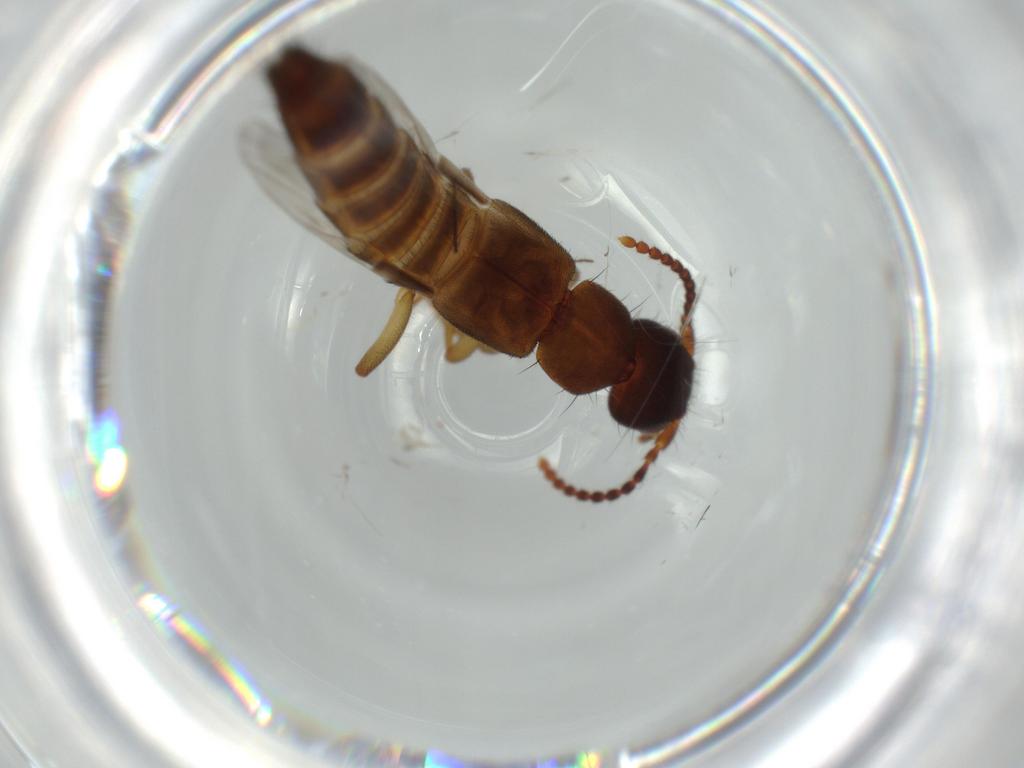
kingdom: Animalia
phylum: Arthropoda
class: Insecta
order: Coleoptera
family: Staphylinidae
